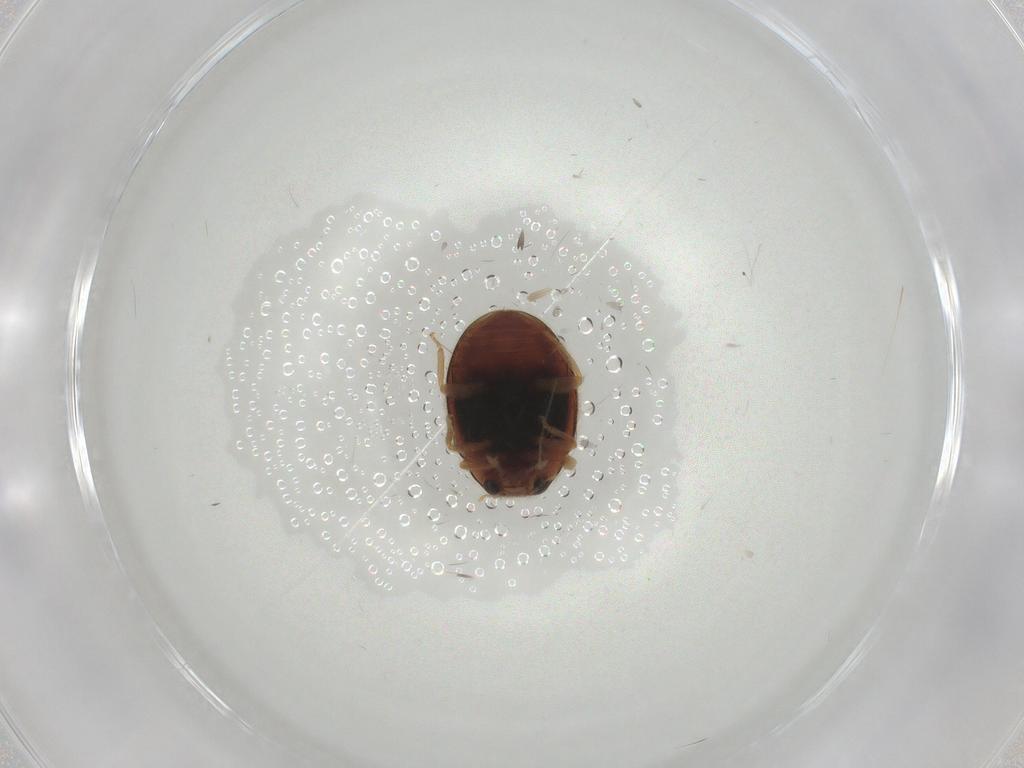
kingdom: Animalia
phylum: Arthropoda
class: Insecta
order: Coleoptera
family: Coccinellidae
